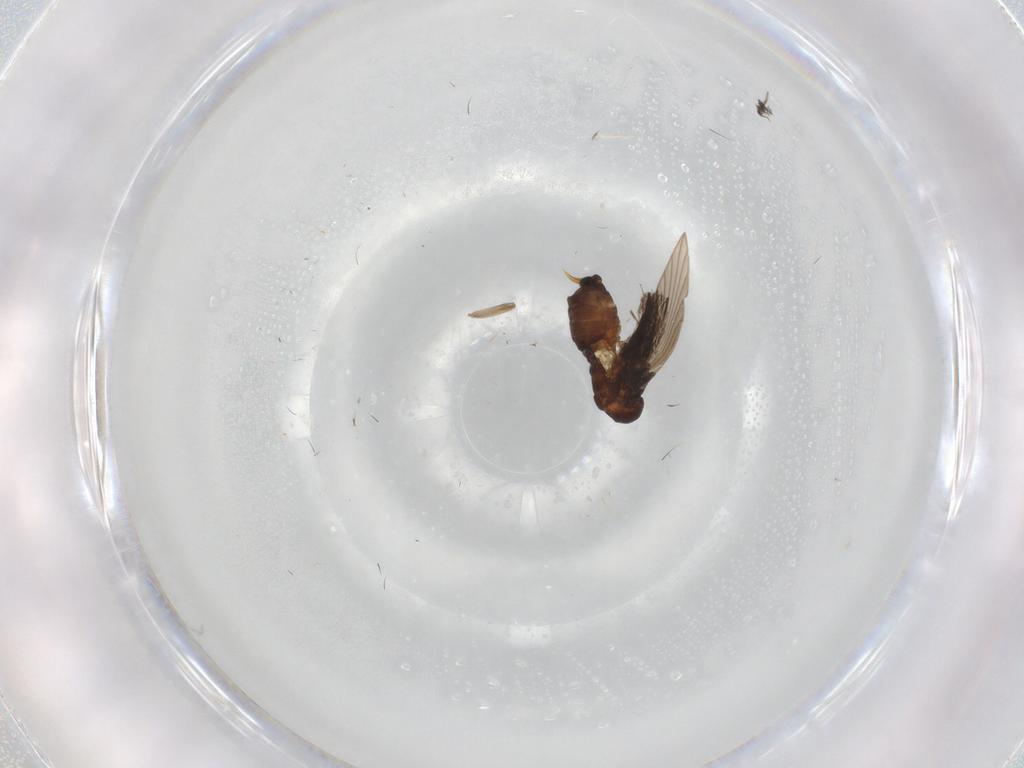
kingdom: Animalia
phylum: Arthropoda
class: Insecta
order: Diptera
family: Psychodidae
